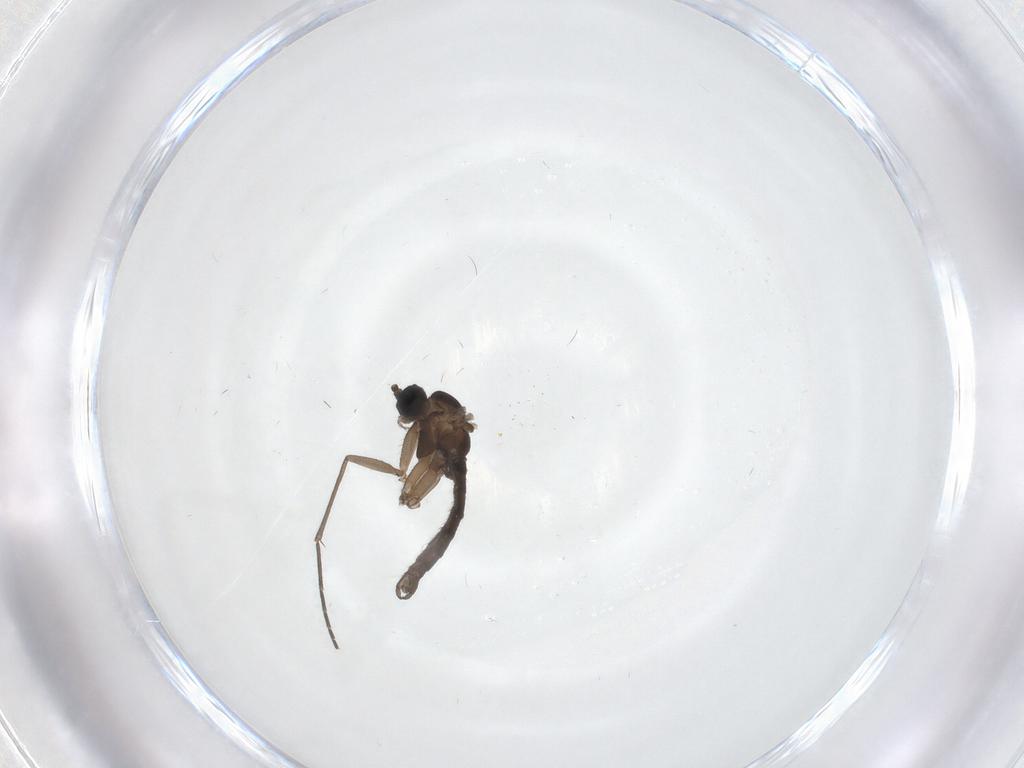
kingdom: Animalia
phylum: Arthropoda
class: Insecta
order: Diptera
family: Sciaridae
